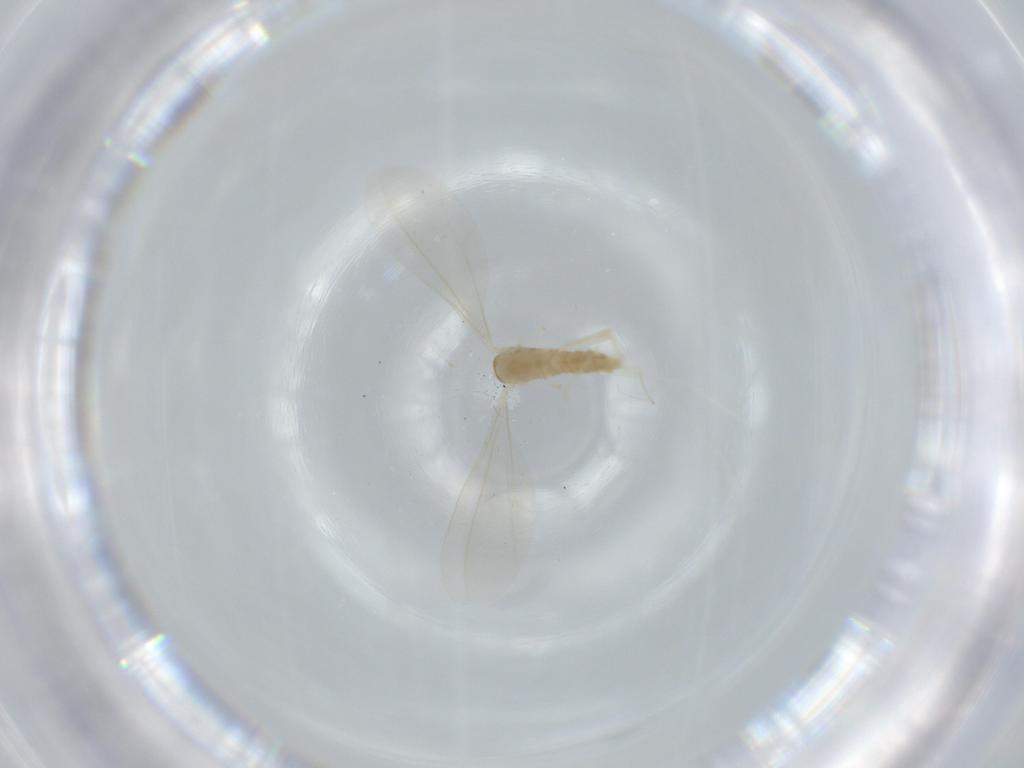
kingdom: Animalia
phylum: Arthropoda
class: Insecta
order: Diptera
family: Cecidomyiidae
